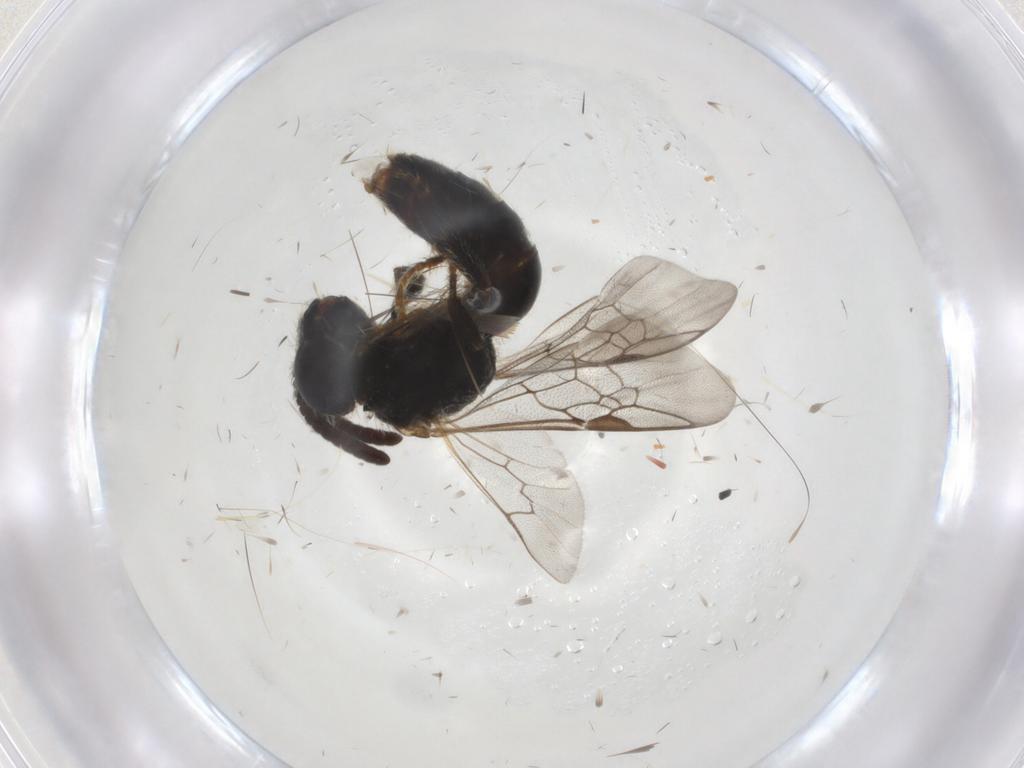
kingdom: Animalia
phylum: Arthropoda
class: Insecta
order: Hymenoptera
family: Halictidae
